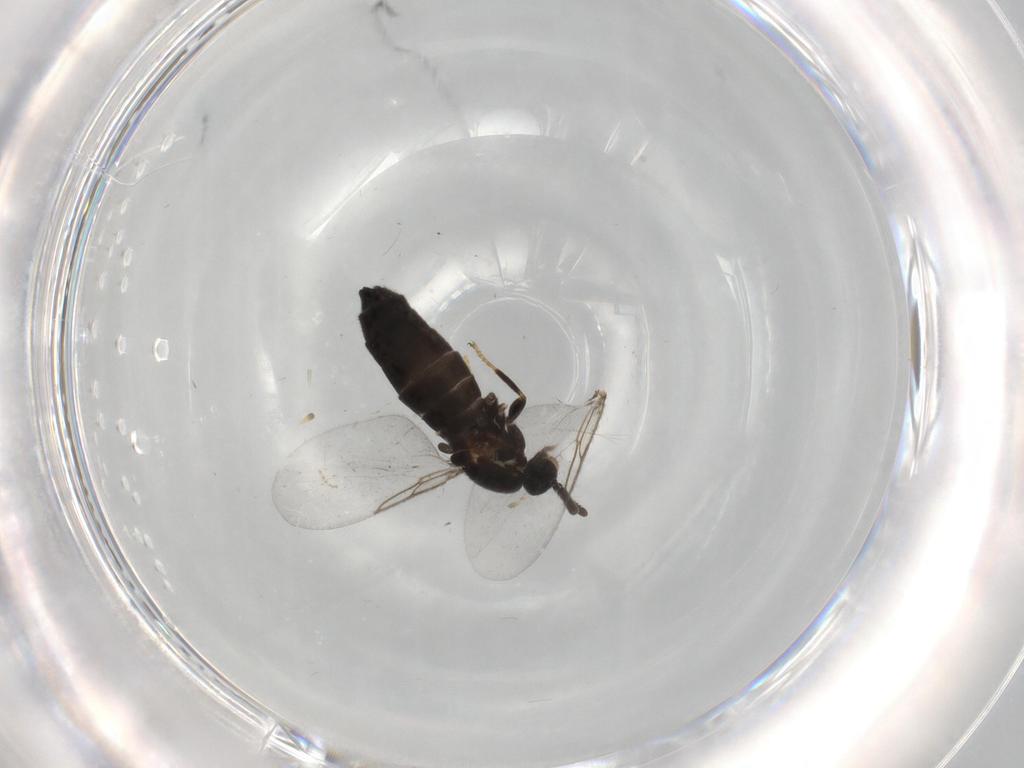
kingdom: Animalia
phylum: Arthropoda
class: Insecta
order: Diptera
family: Scatopsidae
